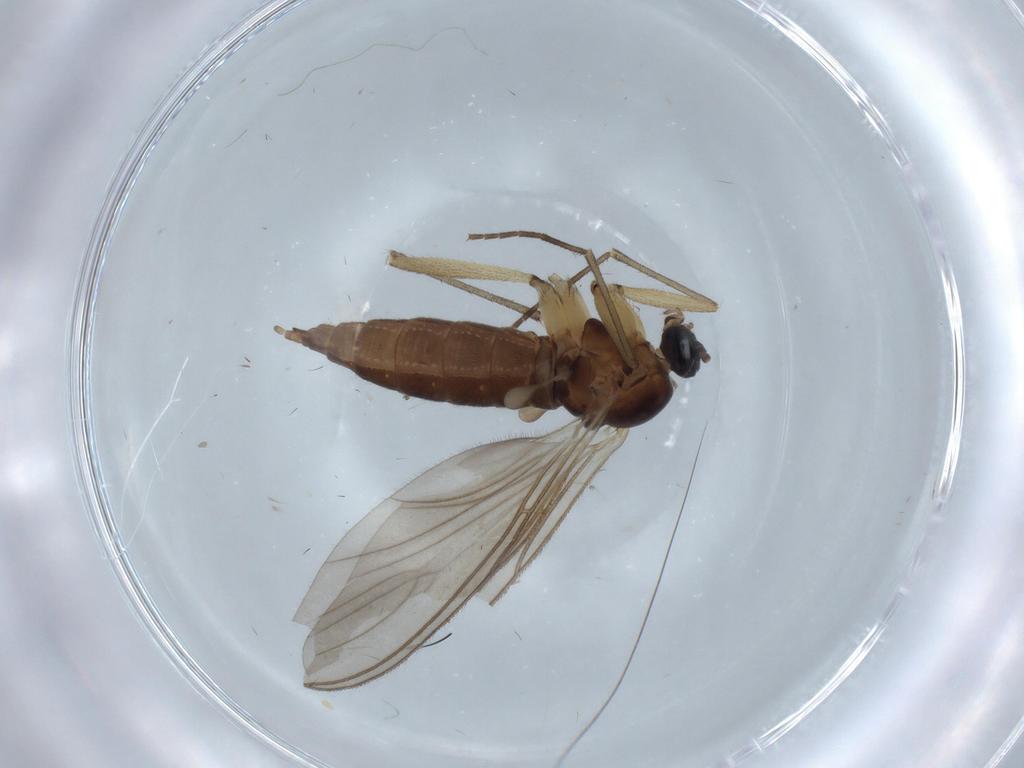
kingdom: Animalia
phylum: Arthropoda
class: Insecta
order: Diptera
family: Sciaridae
